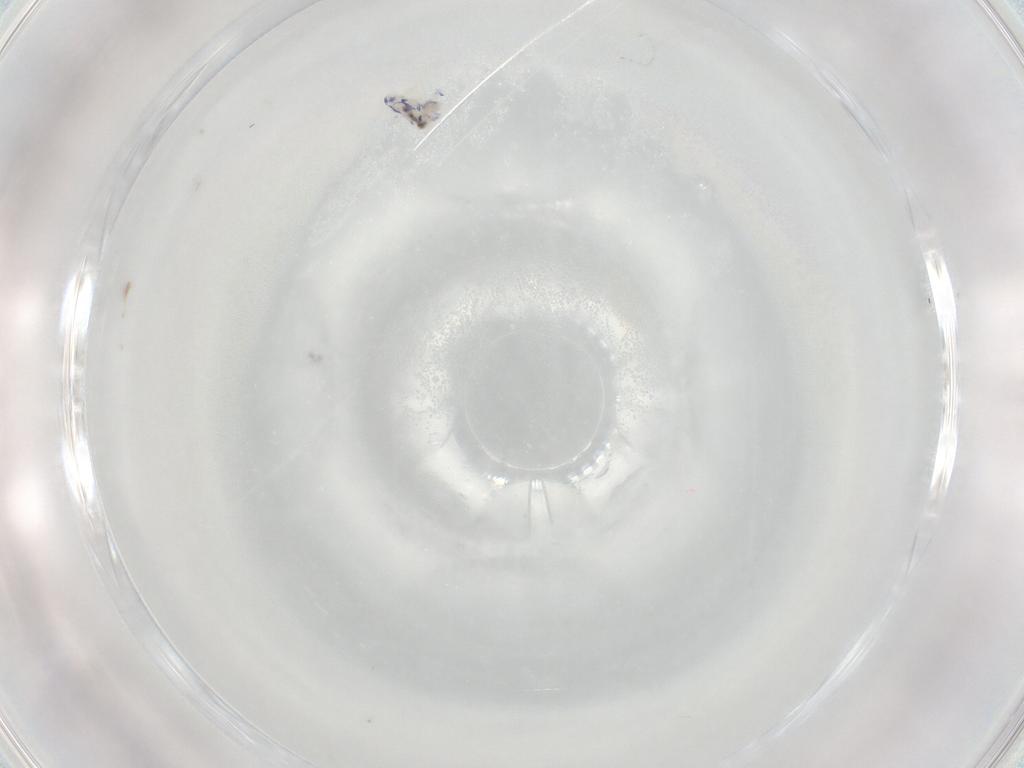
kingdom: Animalia
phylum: Arthropoda
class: Collembola
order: Entomobryomorpha
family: Entomobryidae
